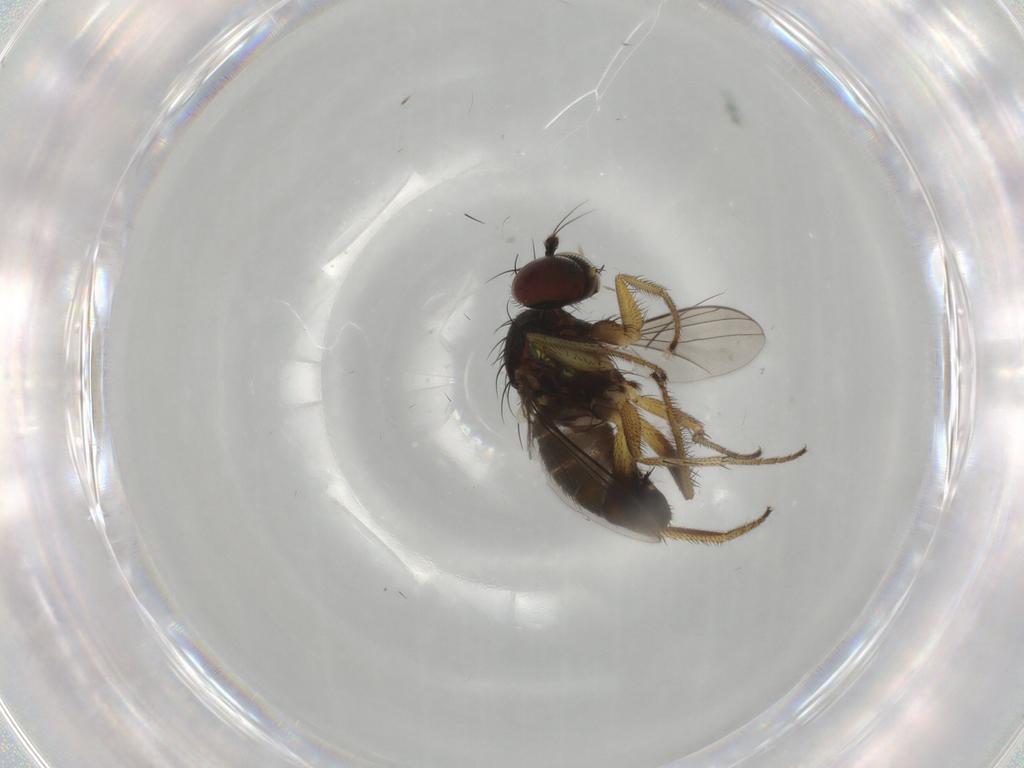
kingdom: Animalia
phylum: Arthropoda
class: Insecta
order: Diptera
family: Dolichopodidae
